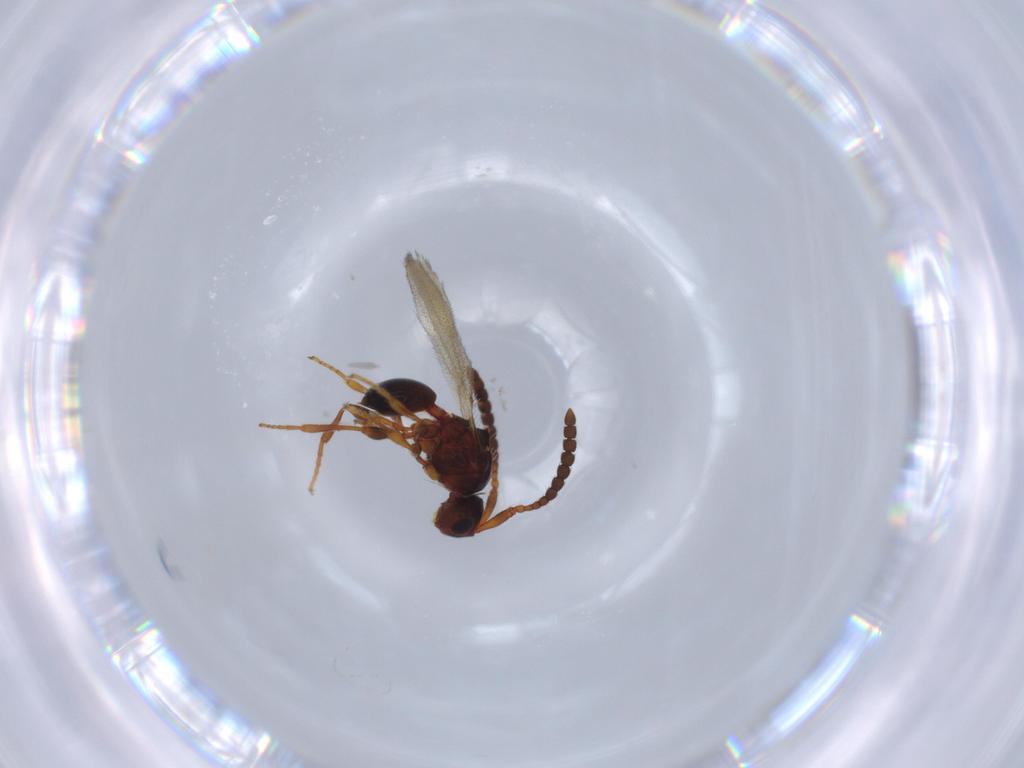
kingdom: Animalia
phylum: Arthropoda
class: Insecta
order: Hymenoptera
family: Diapriidae
